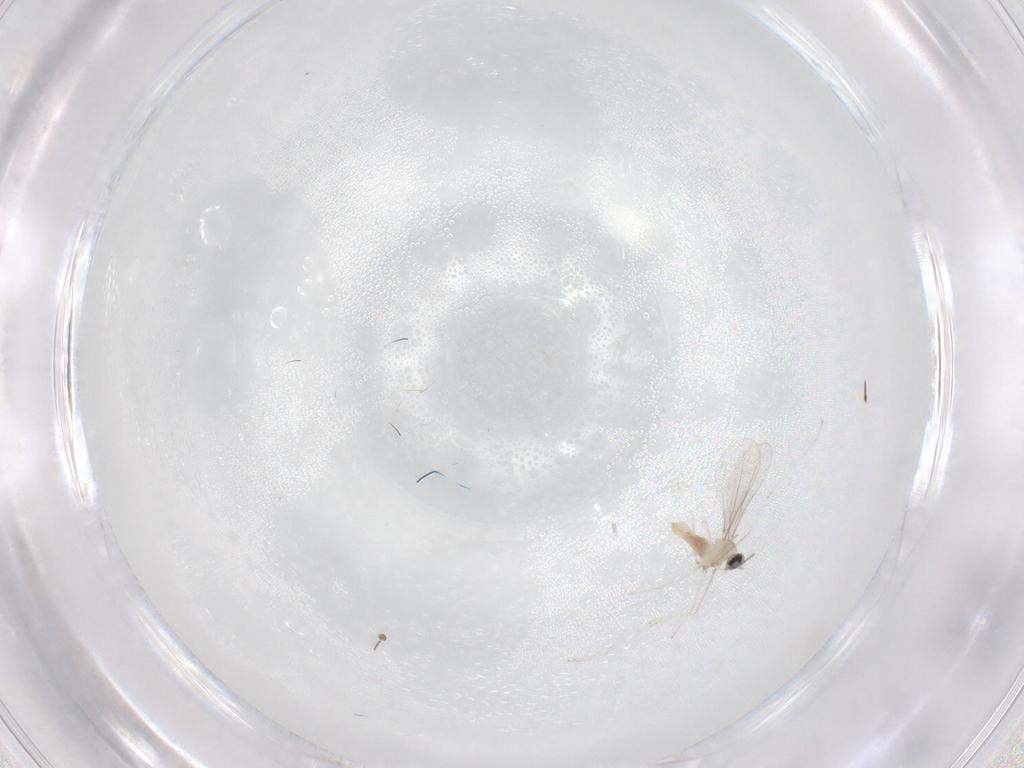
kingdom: Animalia
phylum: Arthropoda
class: Insecta
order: Diptera
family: Cecidomyiidae
